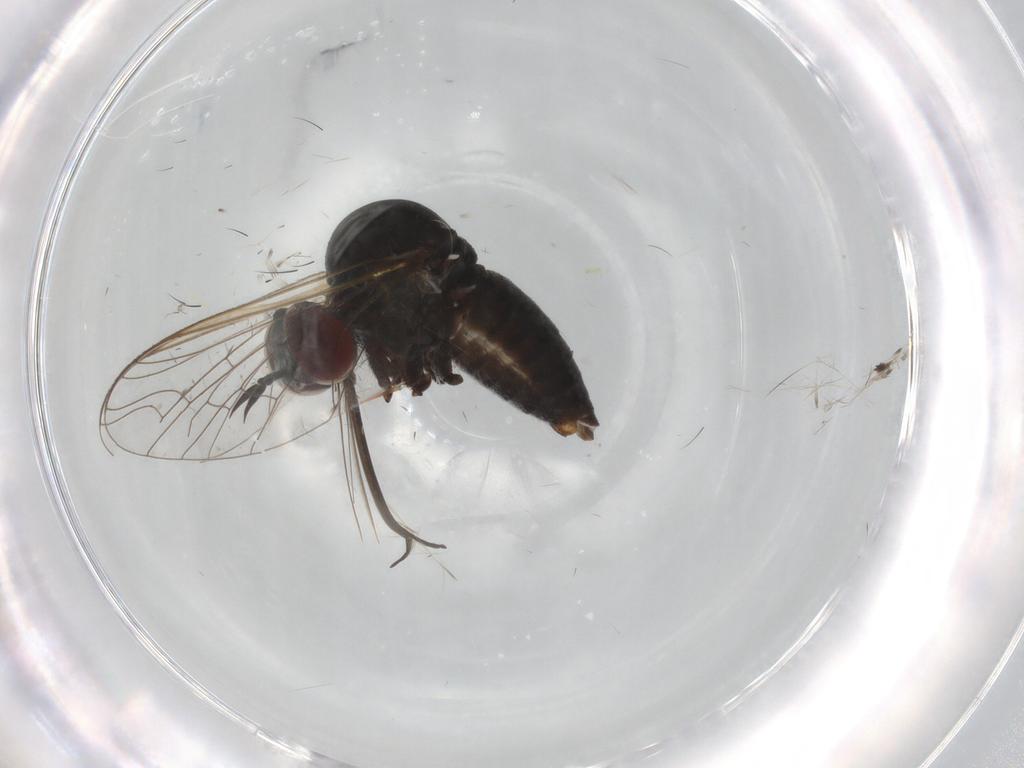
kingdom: Animalia
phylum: Arthropoda
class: Insecta
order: Diptera
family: Bombyliidae
